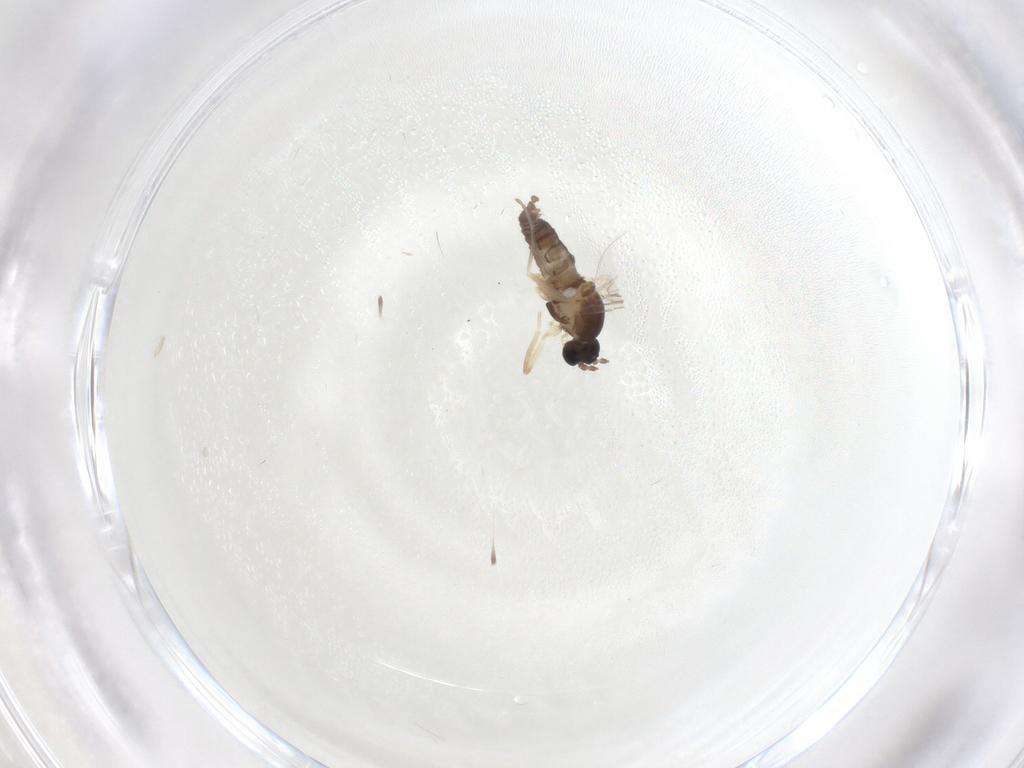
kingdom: Animalia
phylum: Arthropoda
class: Insecta
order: Diptera
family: Cecidomyiidae
